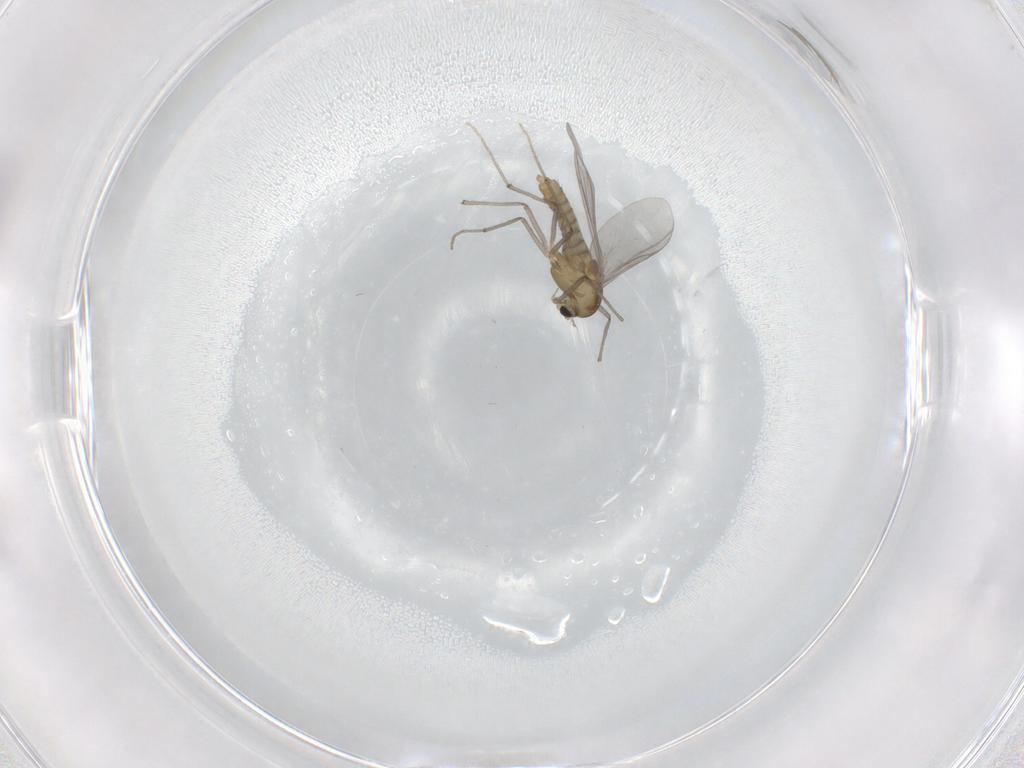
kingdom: Animalia
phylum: Arthropoda
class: Insecta
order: Diptera
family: Chironomidae
